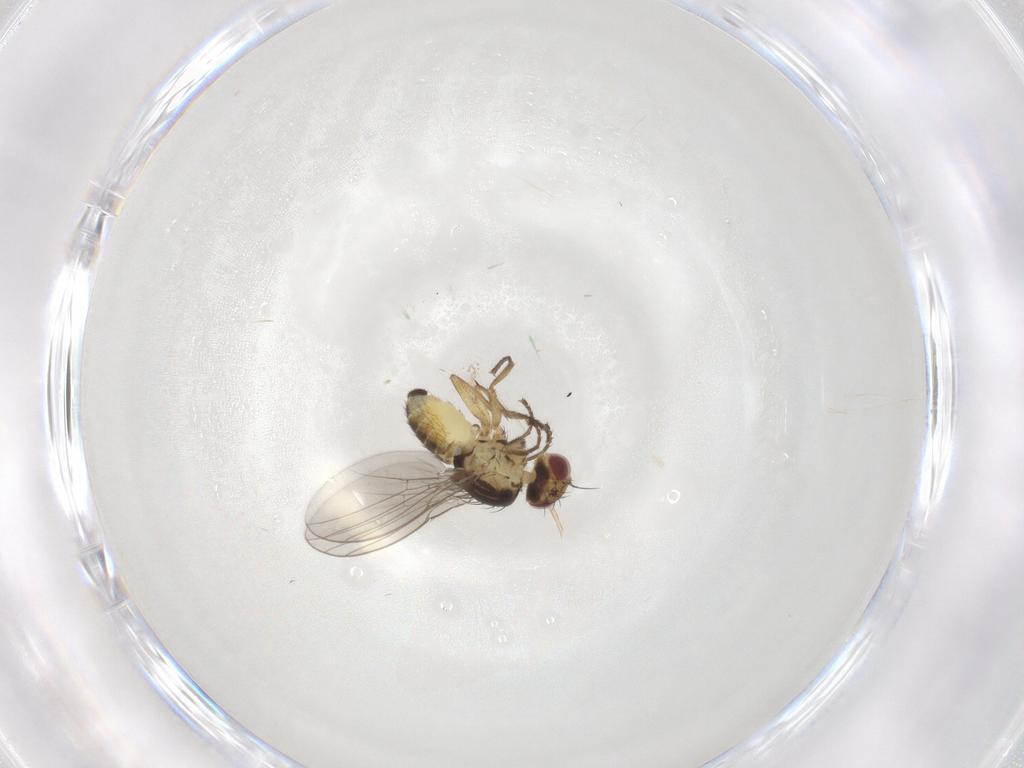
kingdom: Animalia
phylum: Arthropoda
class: Insecta
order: Diptera
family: Agromyzidae
